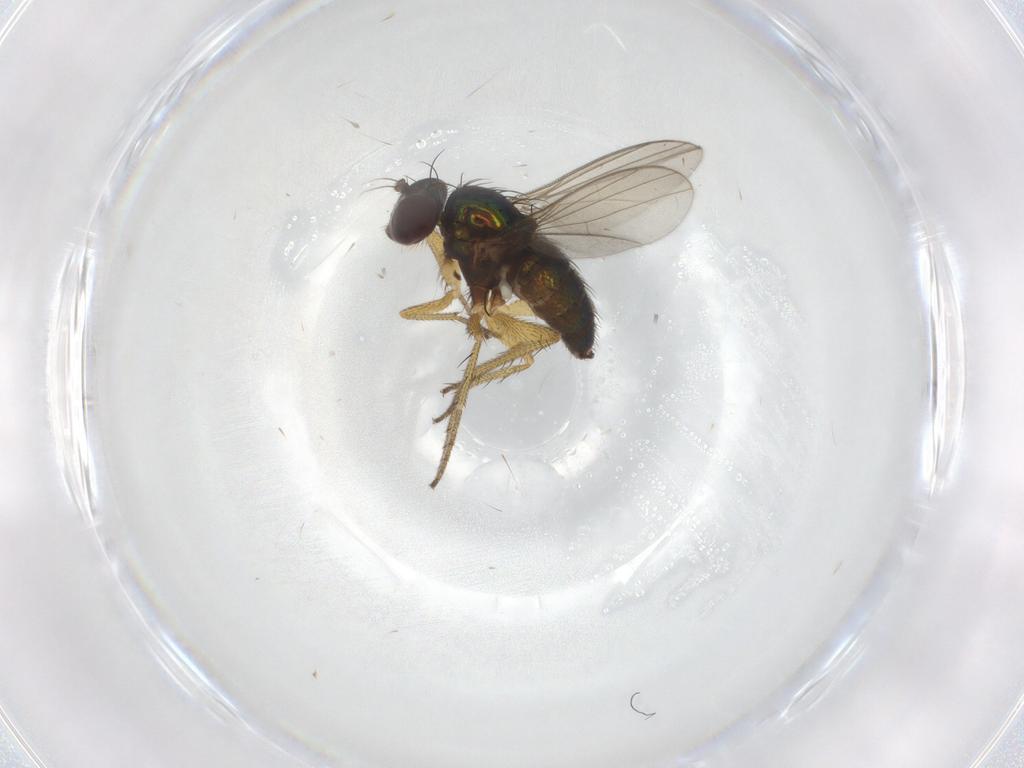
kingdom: Animalia
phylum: Arthropoda
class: Insecta
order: Diptera
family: Dolichopodidae
